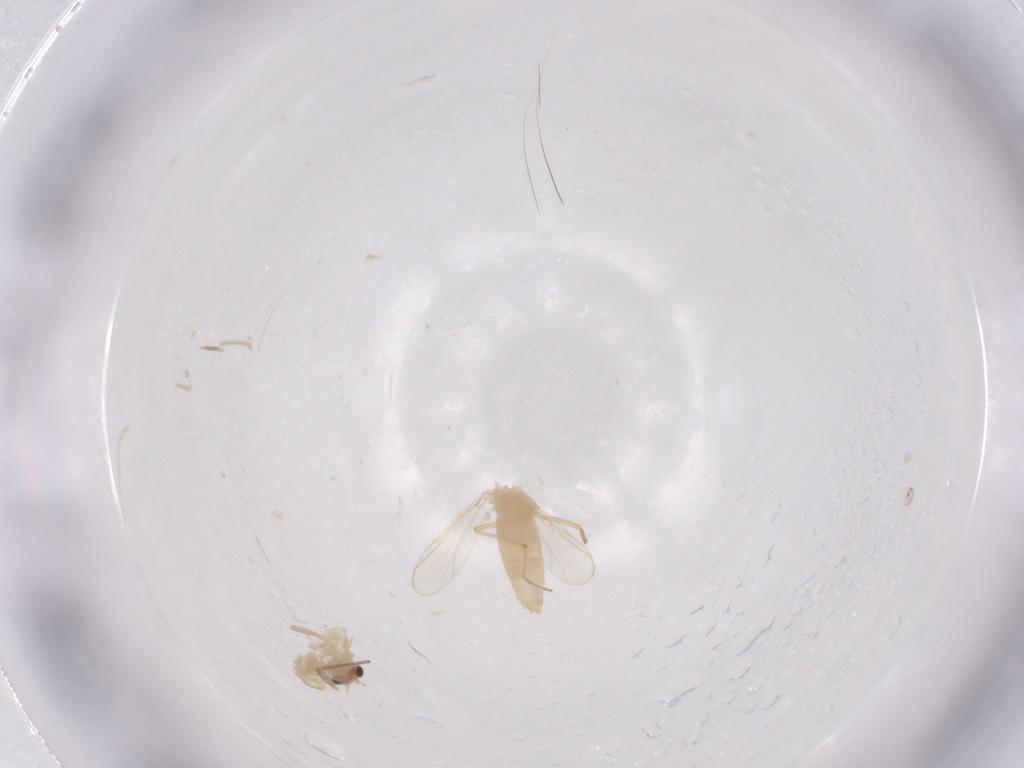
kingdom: Animalia
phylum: Arthropoda
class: Insecta
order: Diptera
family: Chironomidae
